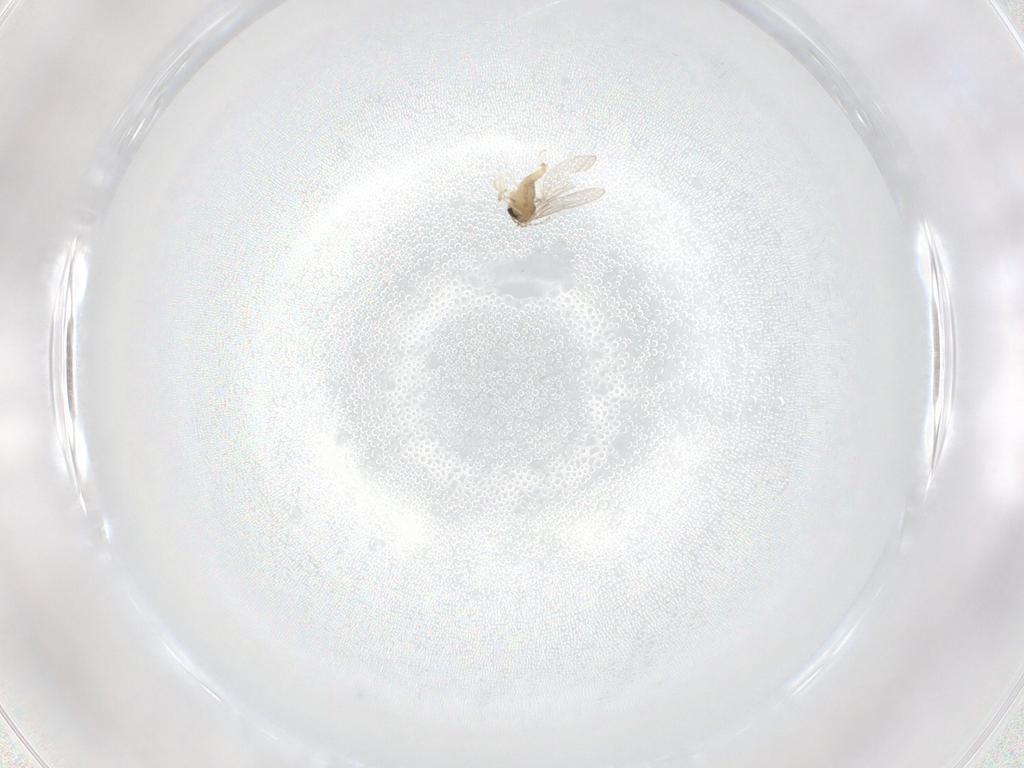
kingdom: Animalia
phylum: Arthropoda
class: Insecta
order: Diptera
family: Cecidomyiidae
